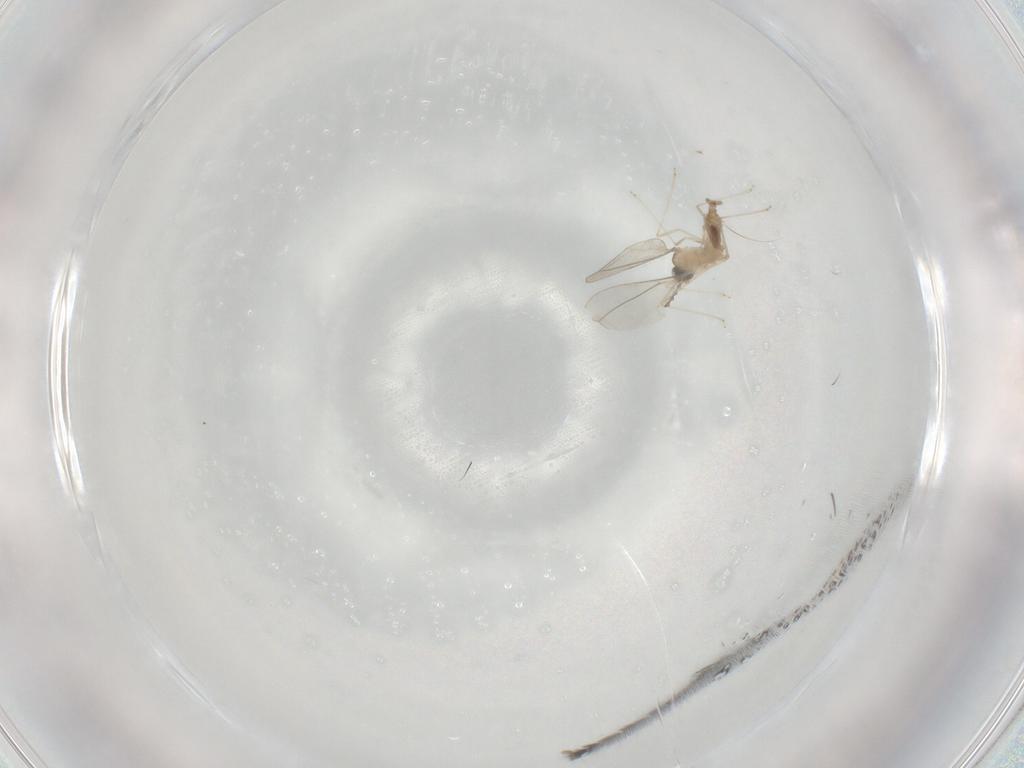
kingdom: Animalia
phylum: Arthropoda
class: Insecta
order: Diptera
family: Cecidomyiidae
